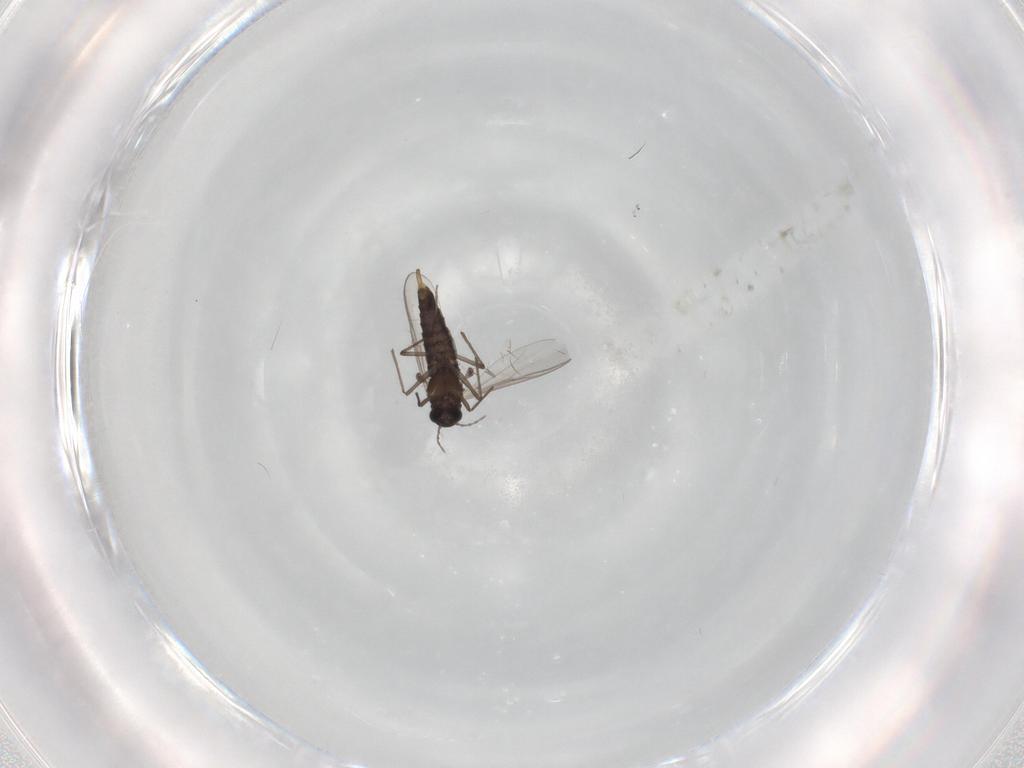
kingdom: Animalia
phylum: Arthropoda
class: Insecta
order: Diptera
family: Chironomidae
